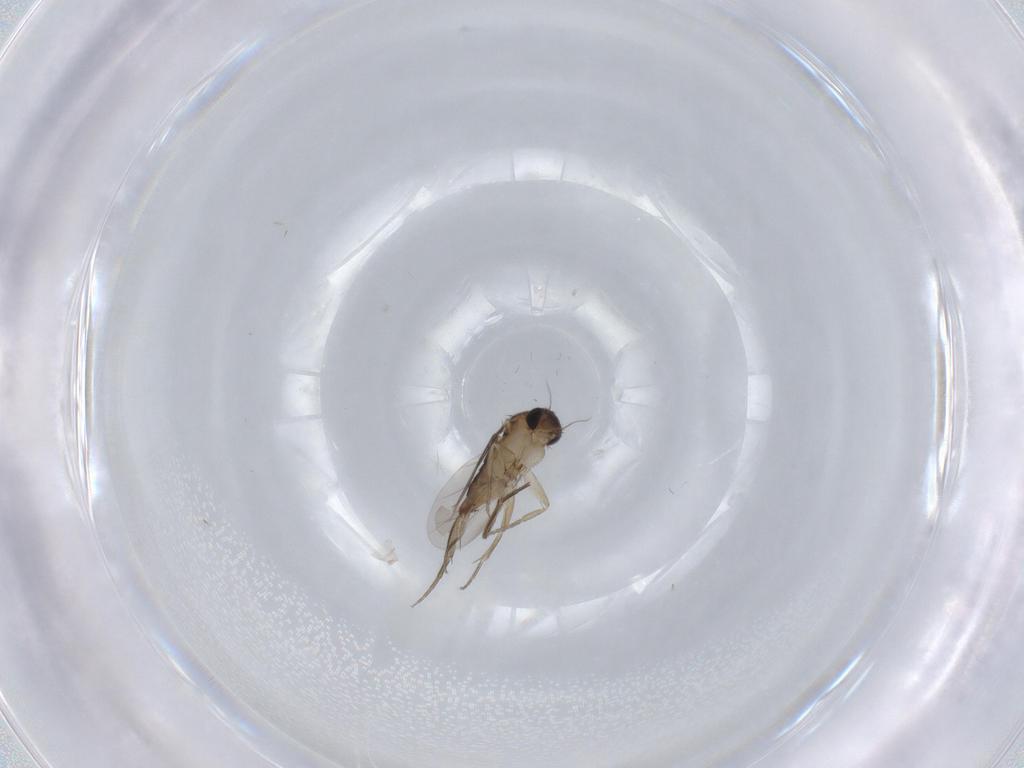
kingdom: Animalia
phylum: Arthropoda
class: Insecta
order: Diptera
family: Phoridae
